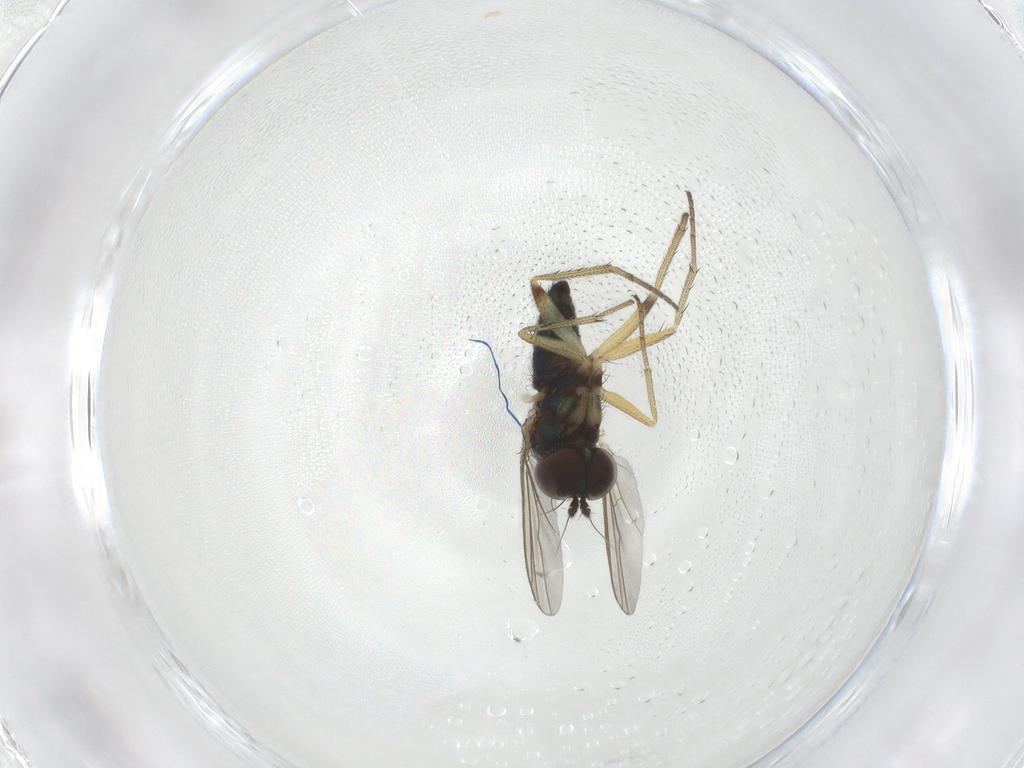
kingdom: Animalia
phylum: Arthropoda
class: Insecta
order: Diptera
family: Dolichopodidae
